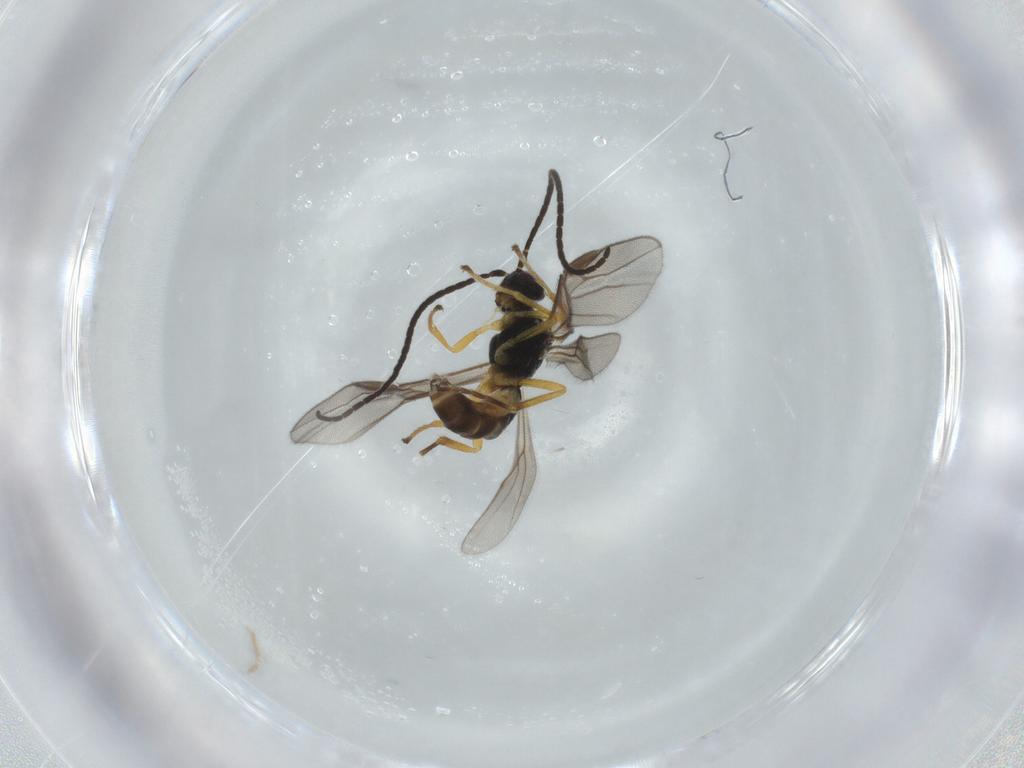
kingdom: Animalia
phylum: Arthropoda
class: Insecta
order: Hymenoptera
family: Braconidae
